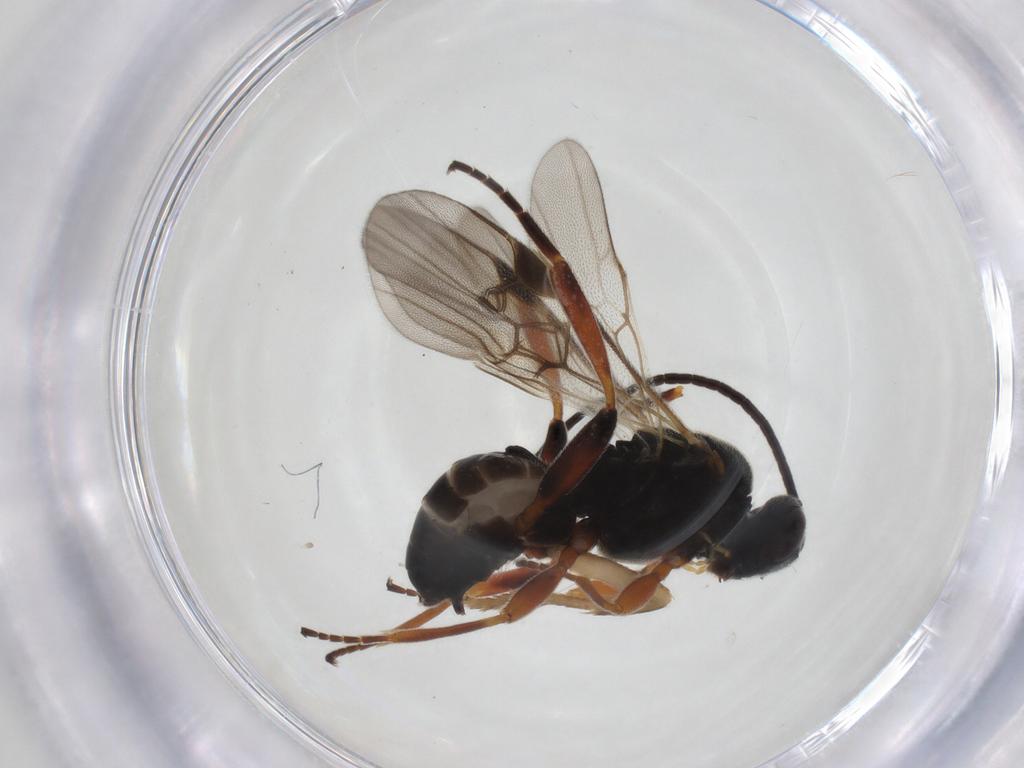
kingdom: Animalia
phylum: Arthropoda
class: Insecta
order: Hymenoptera
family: Braconidae
